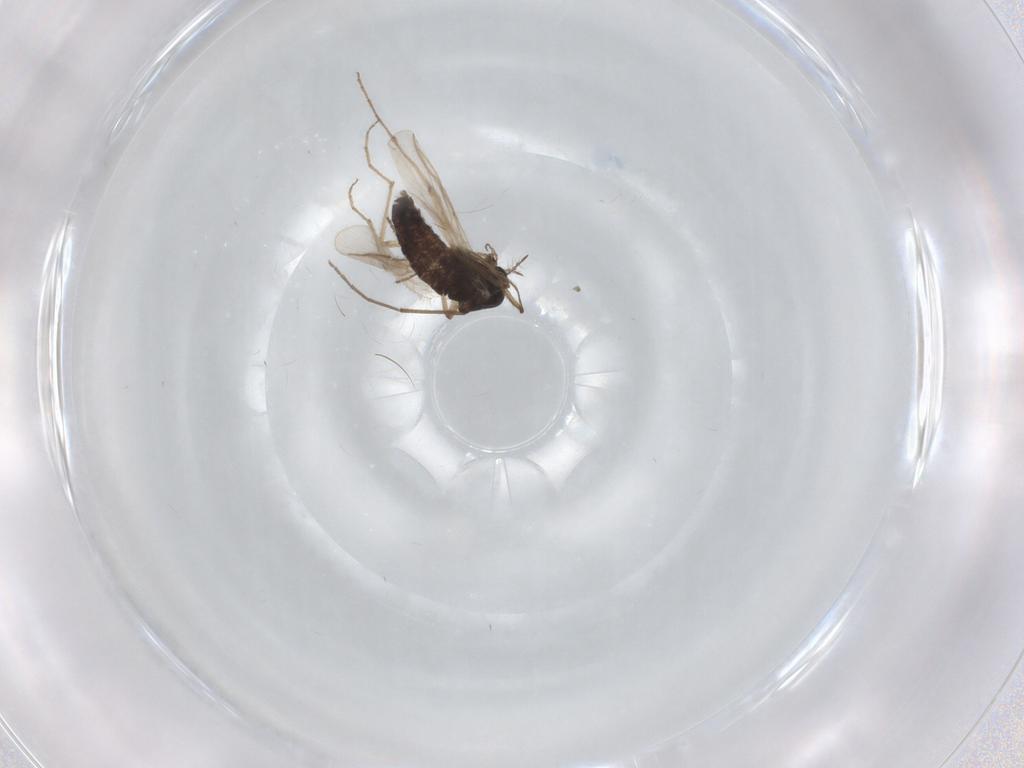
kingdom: Animalia
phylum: Arthropoda
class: Insecta
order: Diptera
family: Chironomidae
